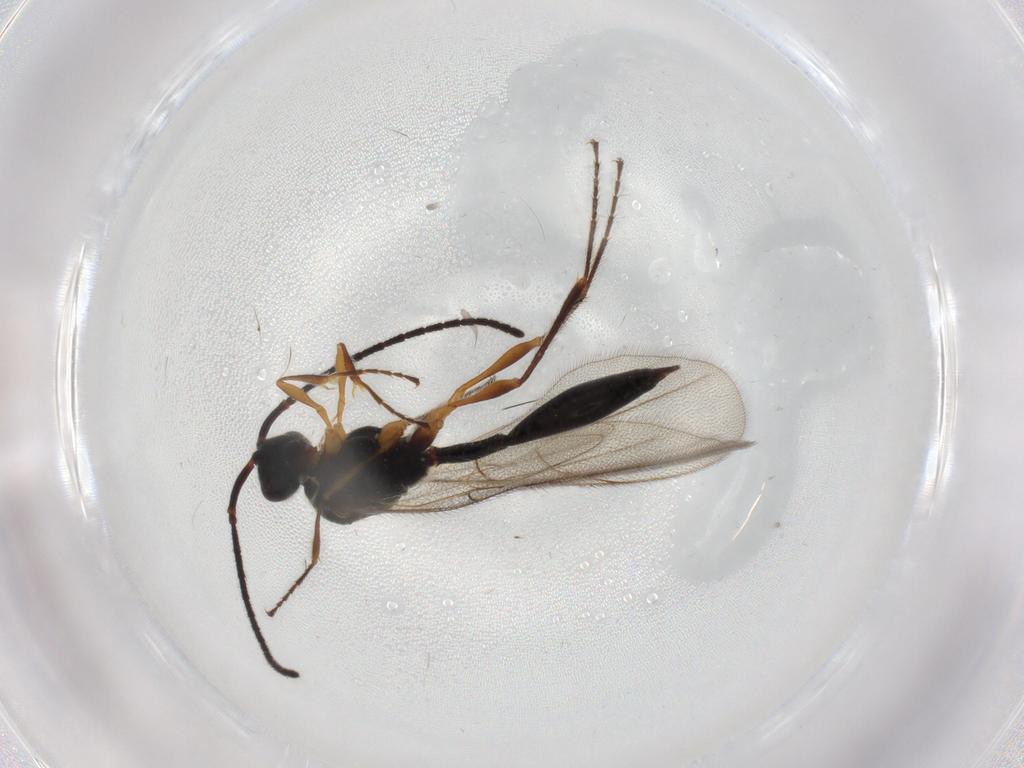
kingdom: Animalia
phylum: Arthropoda
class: Insecta
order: Hymenoptera
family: Diapriidae
